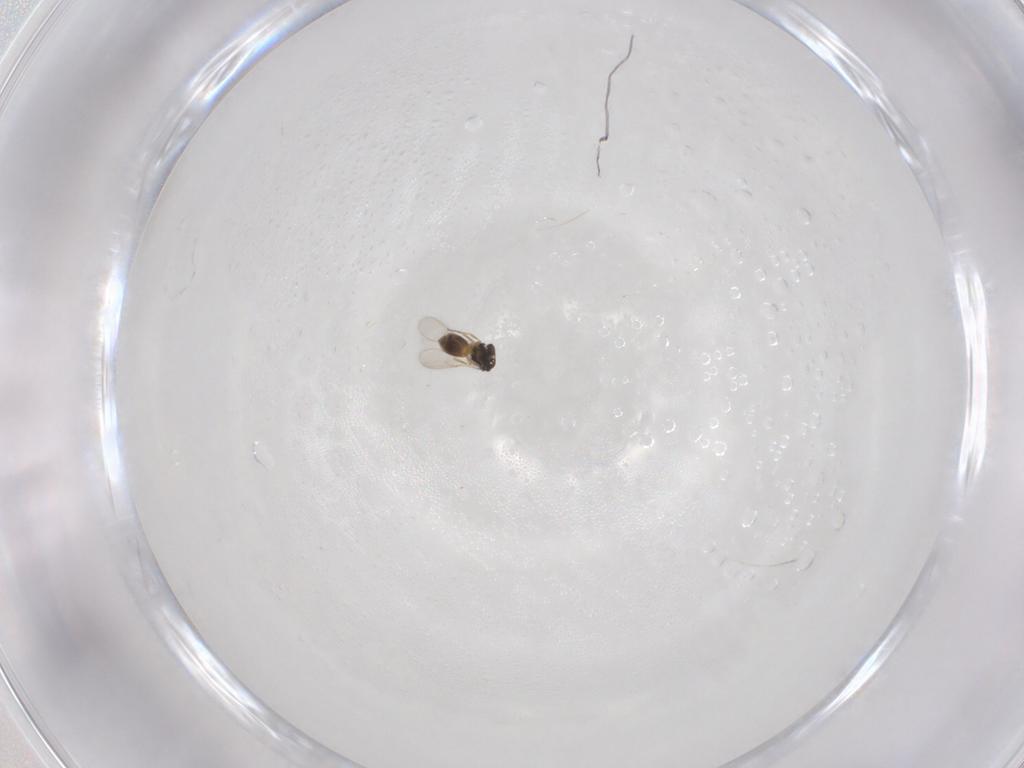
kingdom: Animalia
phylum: Arthropoda
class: Insecta
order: Hymenoptera
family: Scelionidae
